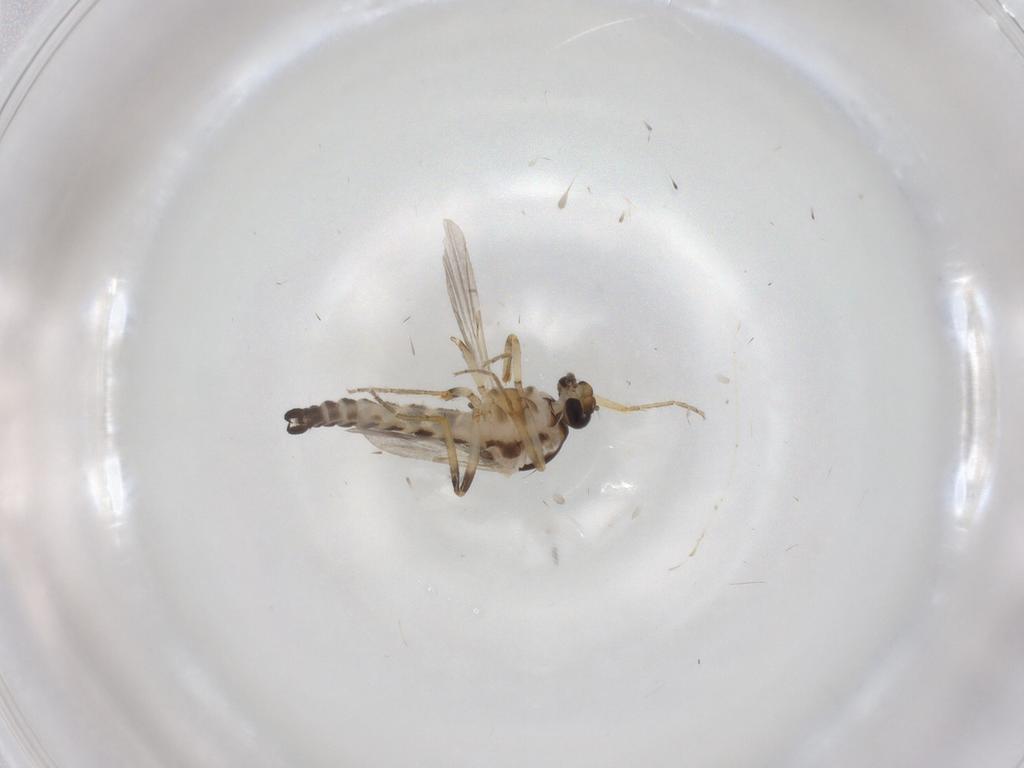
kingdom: Animalia
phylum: Arthropoda
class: Insecta
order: Diptera
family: Ceratopogonidae
